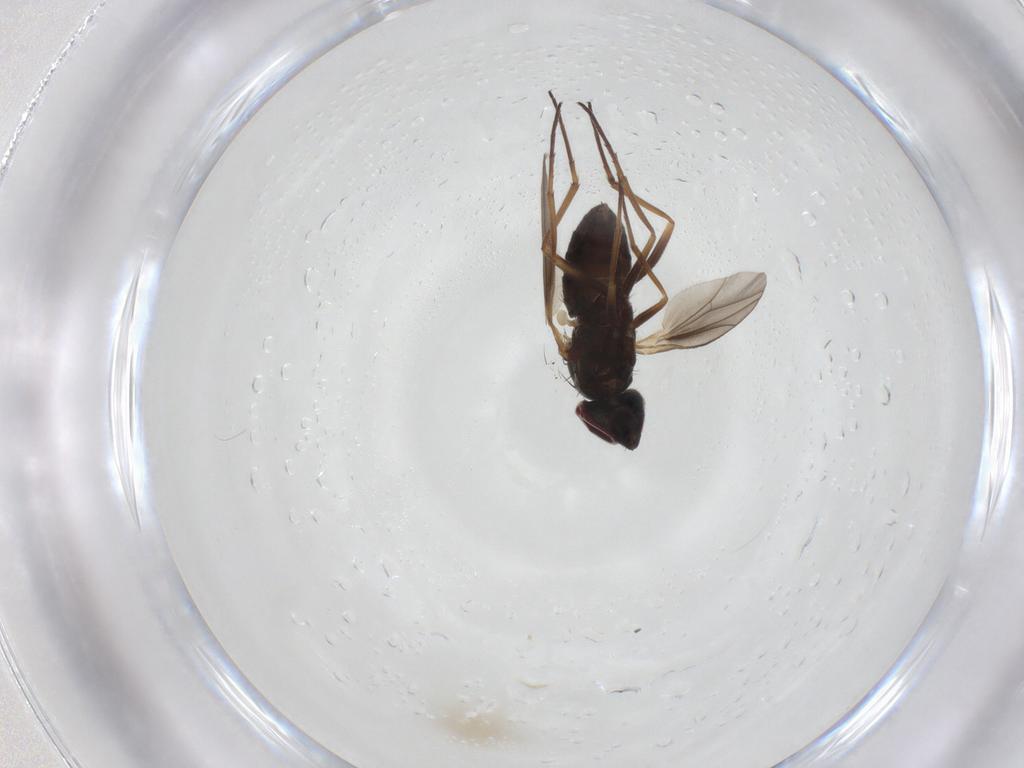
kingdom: Animalia
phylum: Arthropoda
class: Insecta
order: Diptera
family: Dolichopodidae
